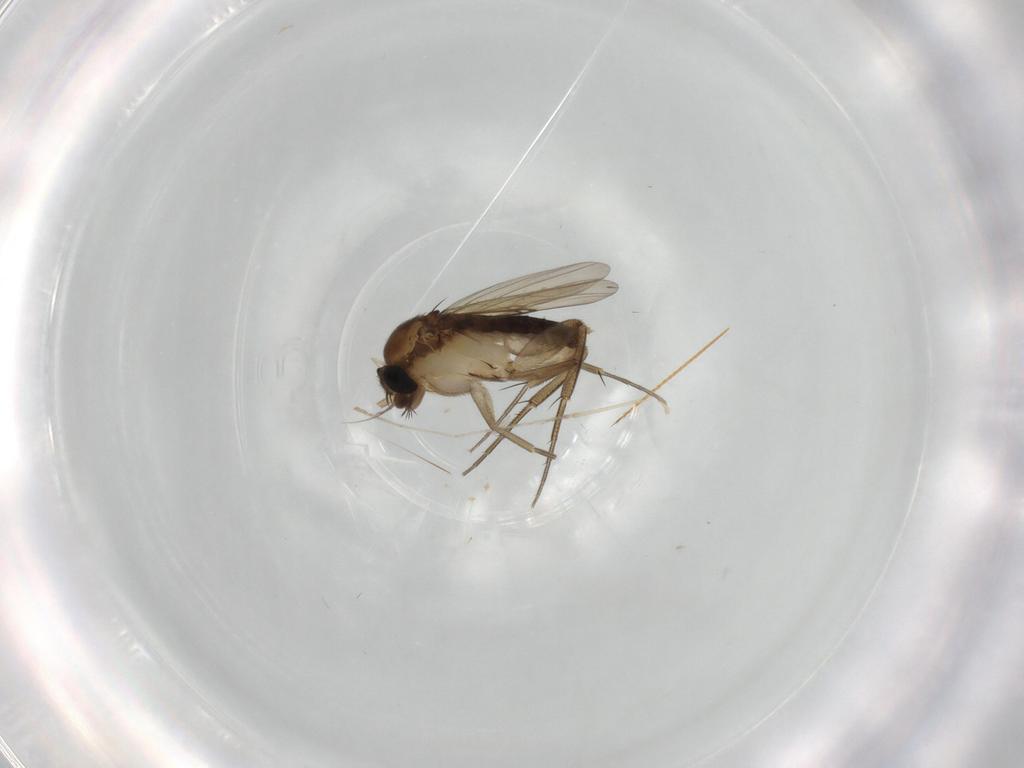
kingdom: Animalia
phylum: Arthropoda
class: Insecta
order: Diptera
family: Phoridae
